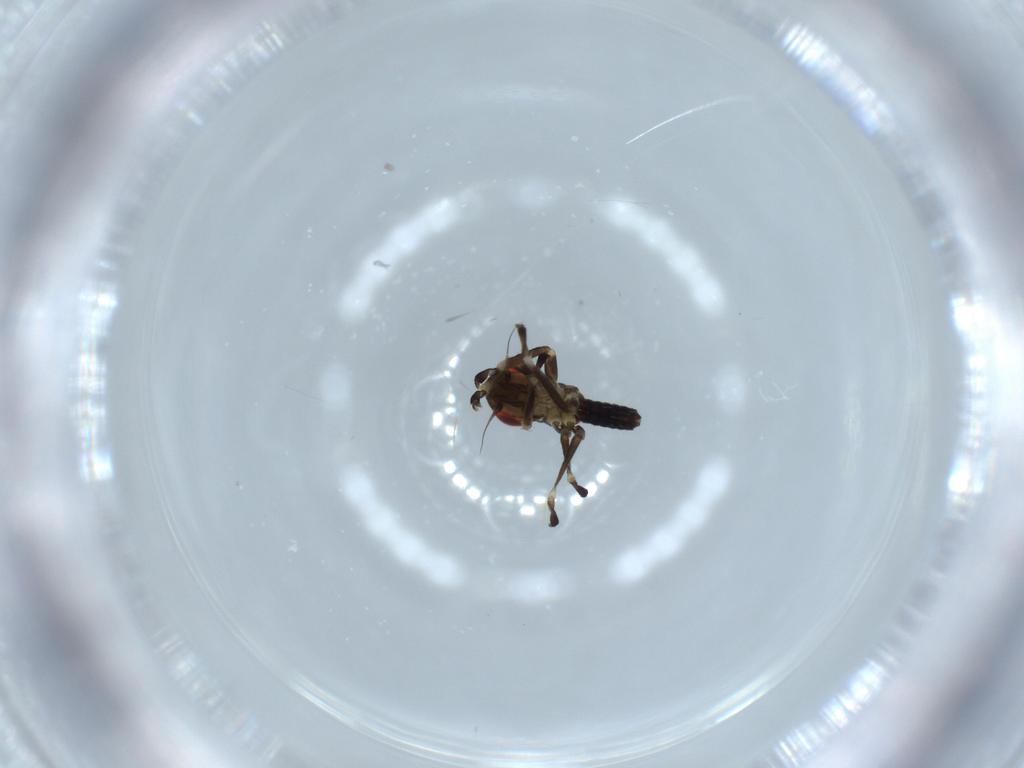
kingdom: Animalia
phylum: Arthropoda
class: Insecta
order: Hemiptera
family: Cicadellidae
